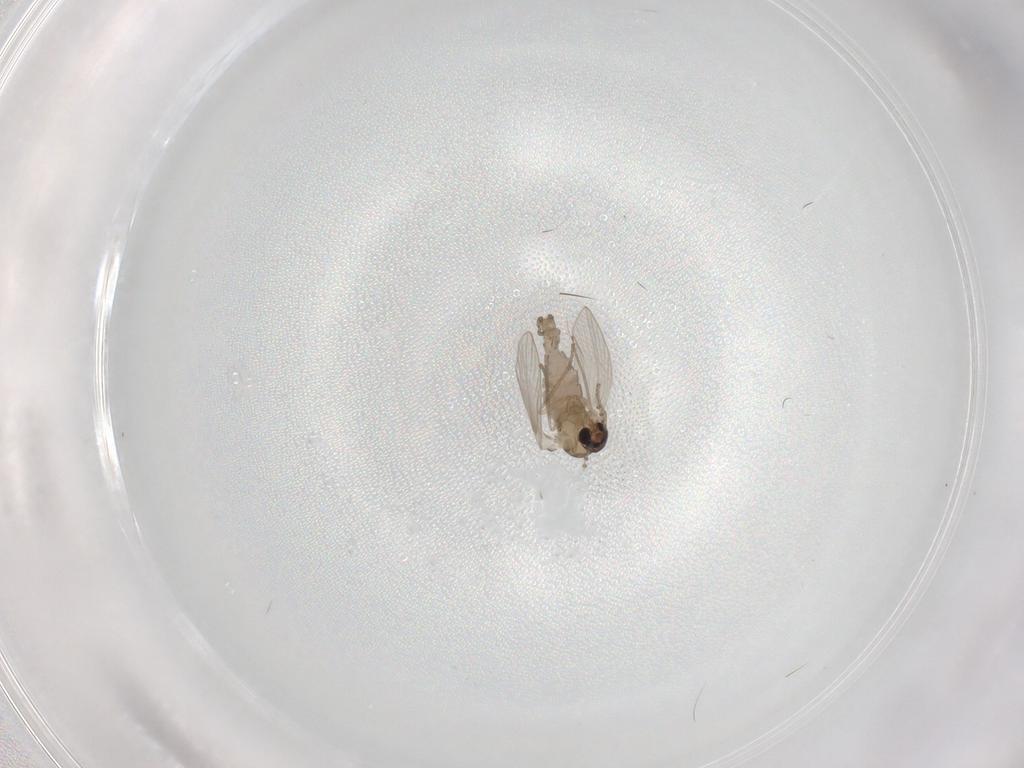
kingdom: Animalia
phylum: Arthropoda
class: Insecta
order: Diptera
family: Psychodidae
